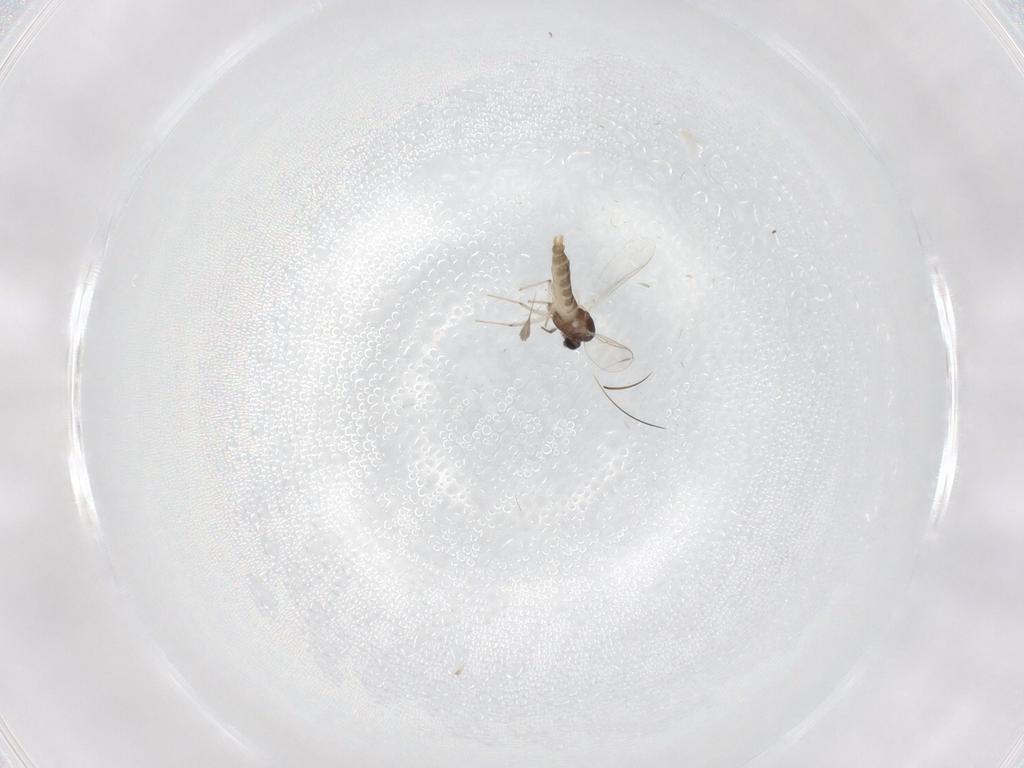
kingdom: Animalia
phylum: Arthropoda
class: Insecta
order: Diptera
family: Chironomidae
